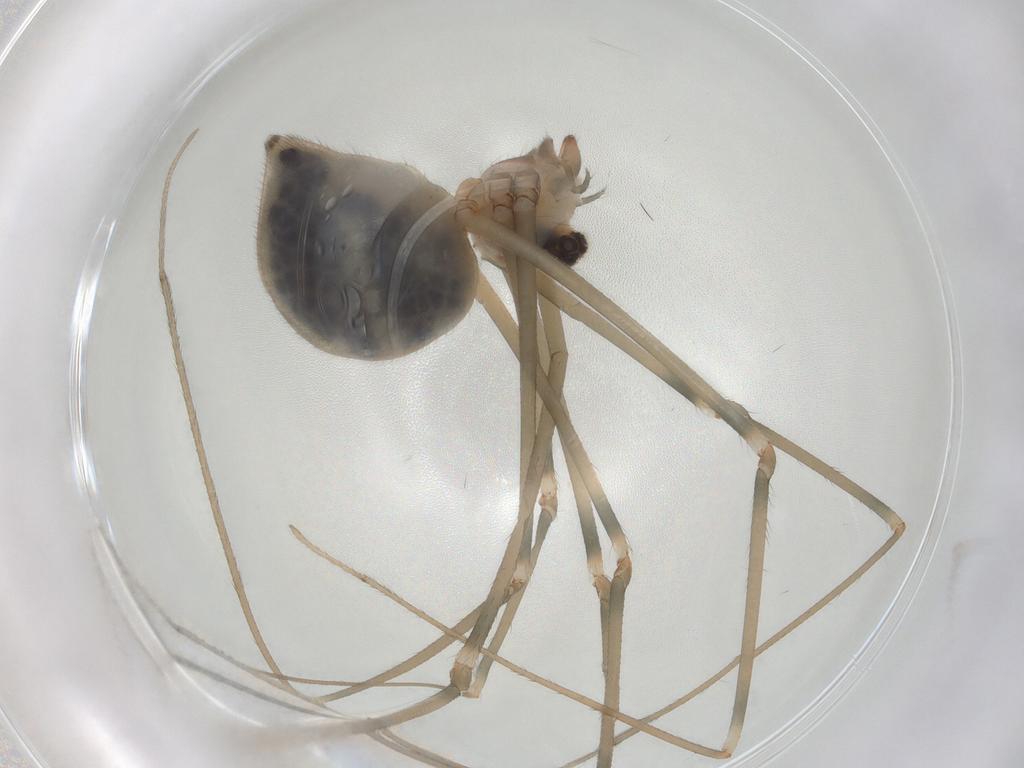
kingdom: Animalia
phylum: Arthropoda
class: Arachnida
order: Araneae
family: Pholcidae
